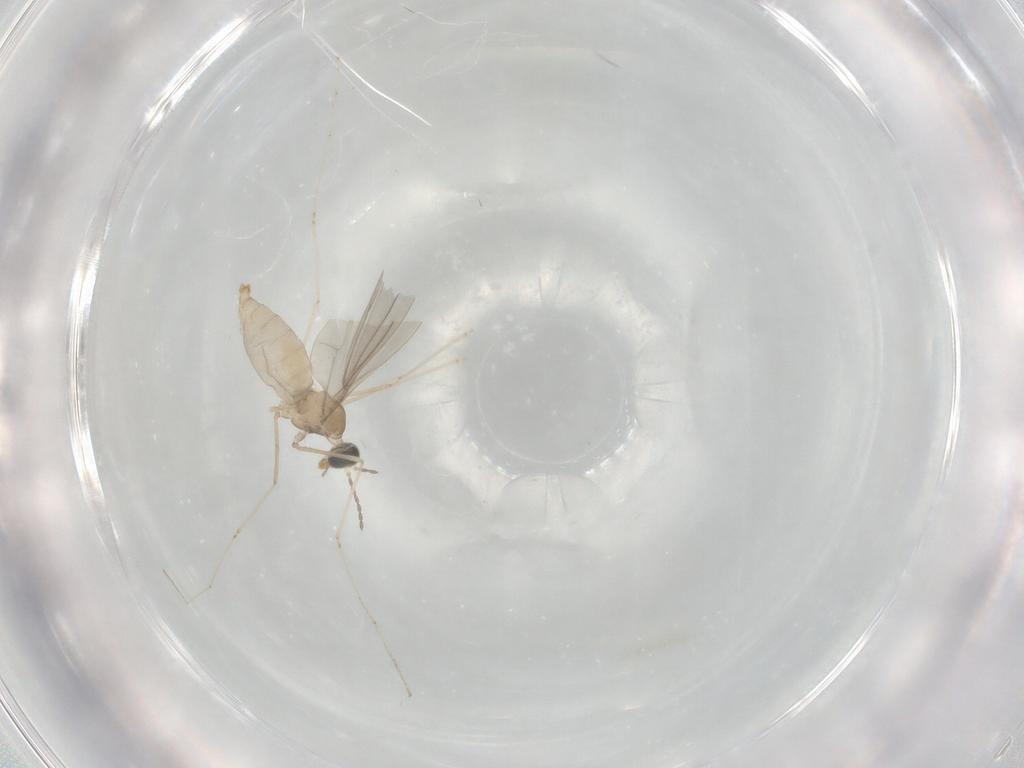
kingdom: Animalia
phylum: Arthropoda
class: Insecta
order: Diptera
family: Cecidomyiidae
